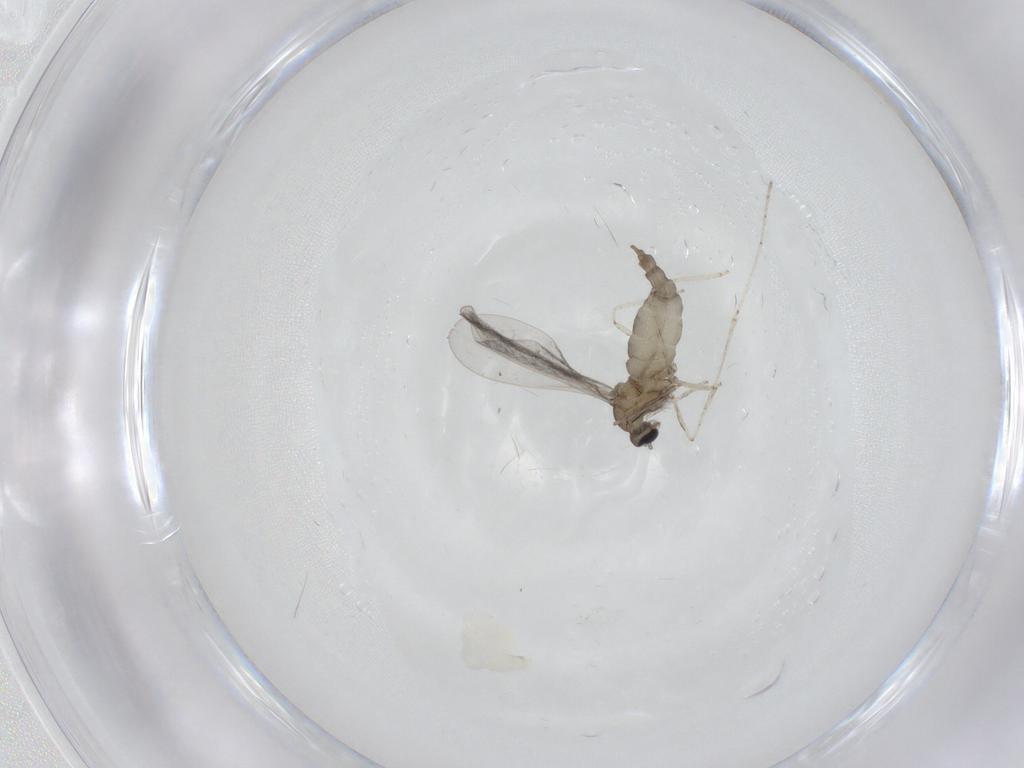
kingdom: Animalia
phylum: Arthropoda
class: Insecta
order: Diptera
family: Cecidomyiidae
